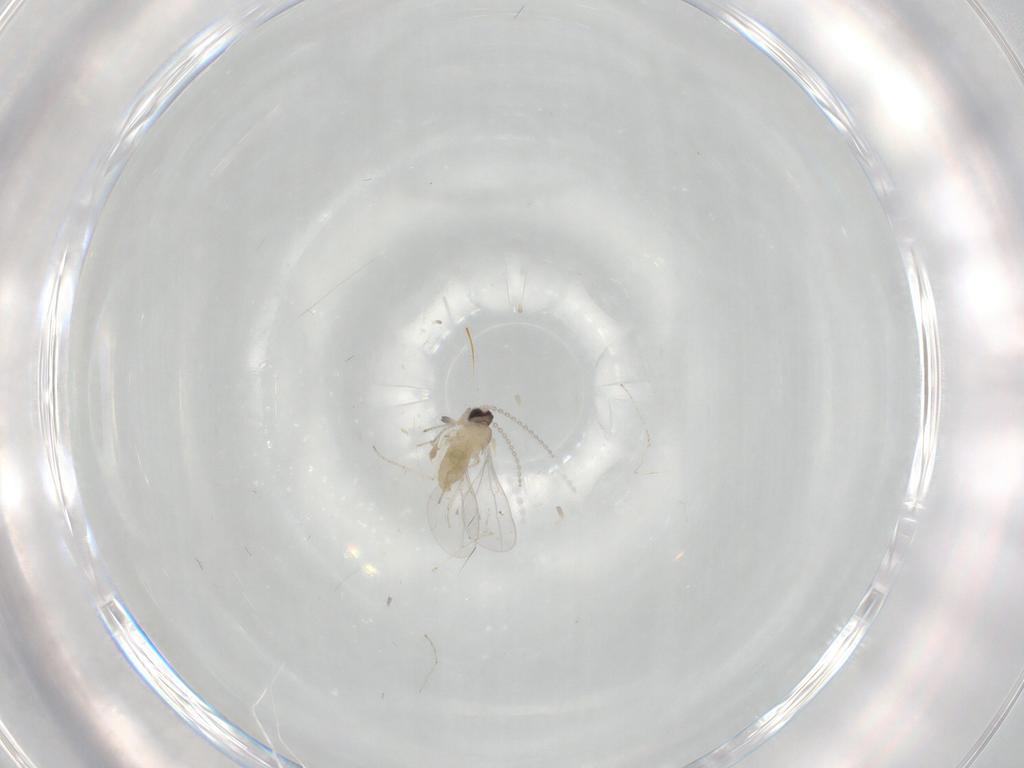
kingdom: Animalia
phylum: Arthropoda
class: Insecta
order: Diptera
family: Cecidomyiidae
